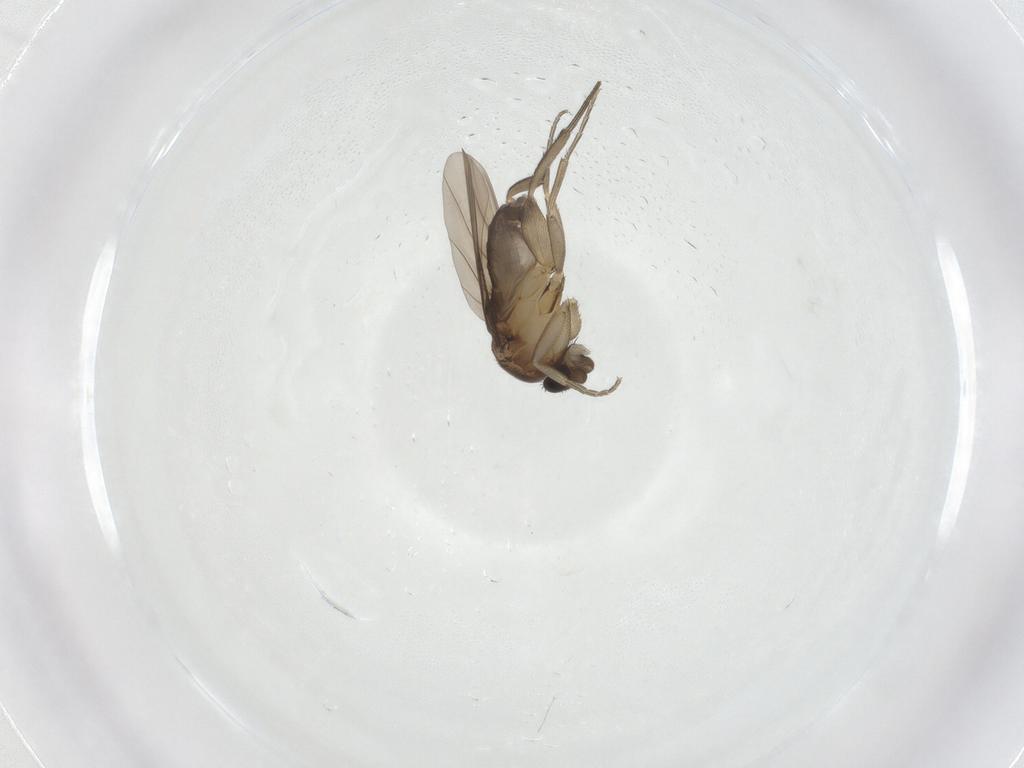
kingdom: Animalia
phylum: Arthropoda
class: Insecta
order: Diptera
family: Phoridae
